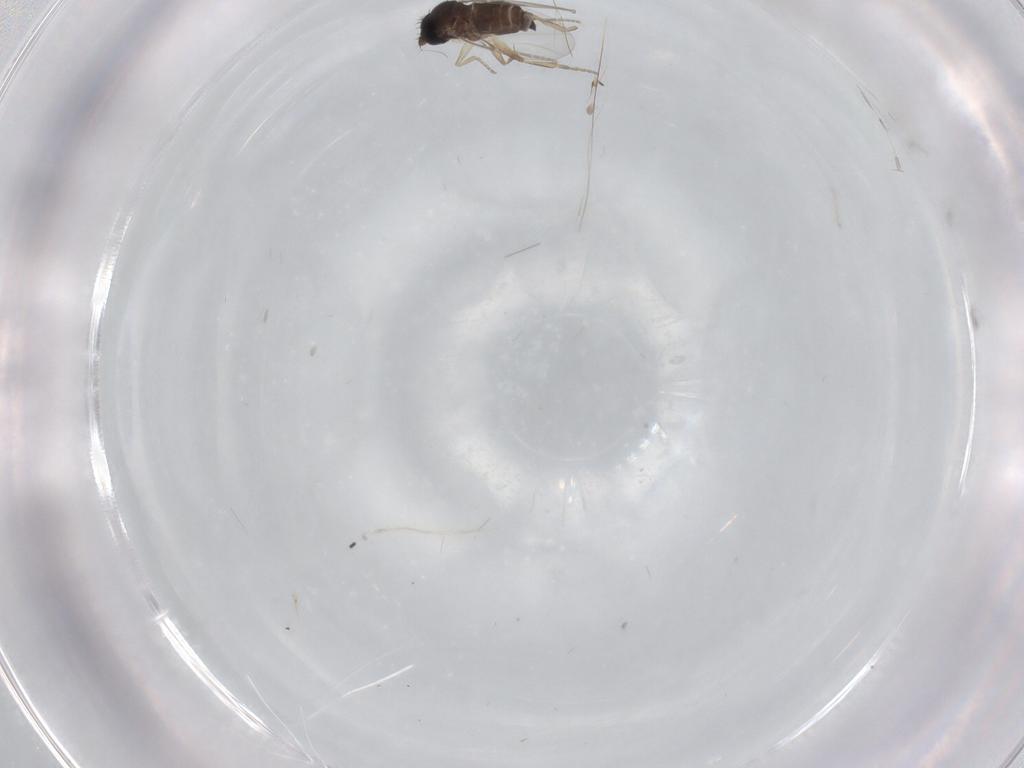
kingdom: Animalia
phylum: Arthropoda
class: Insecta
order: Diptera
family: Phoridae
